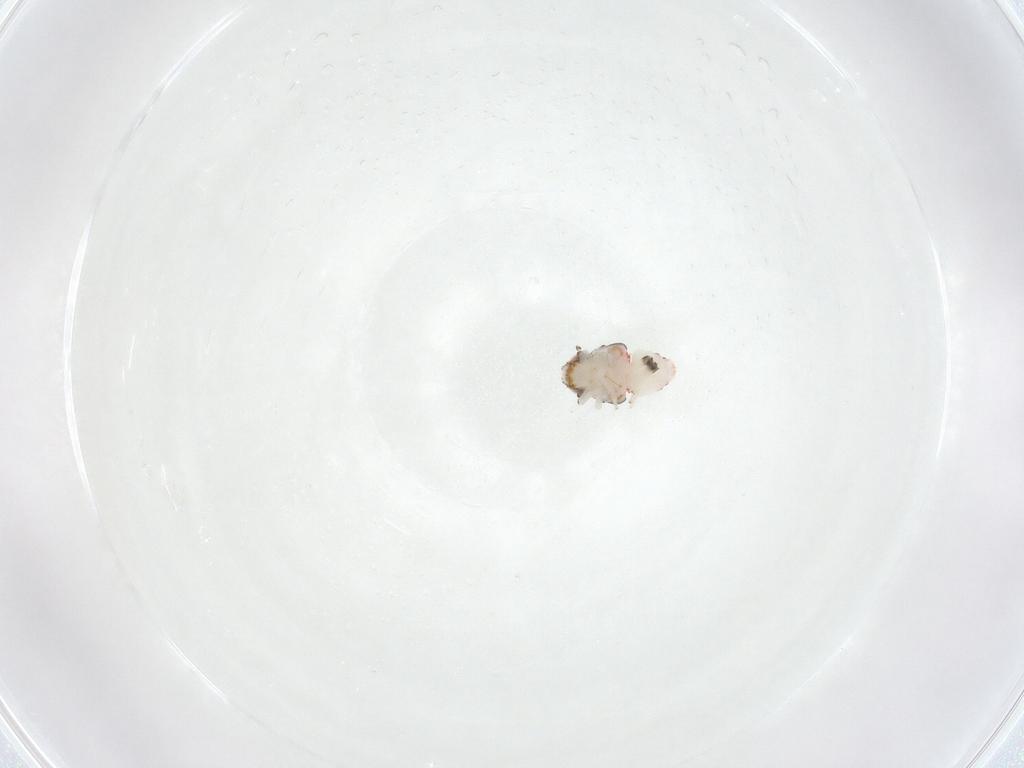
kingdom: Animalia
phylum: Arthropoda
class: Insecta
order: Hemiptera
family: Nogodinidae
